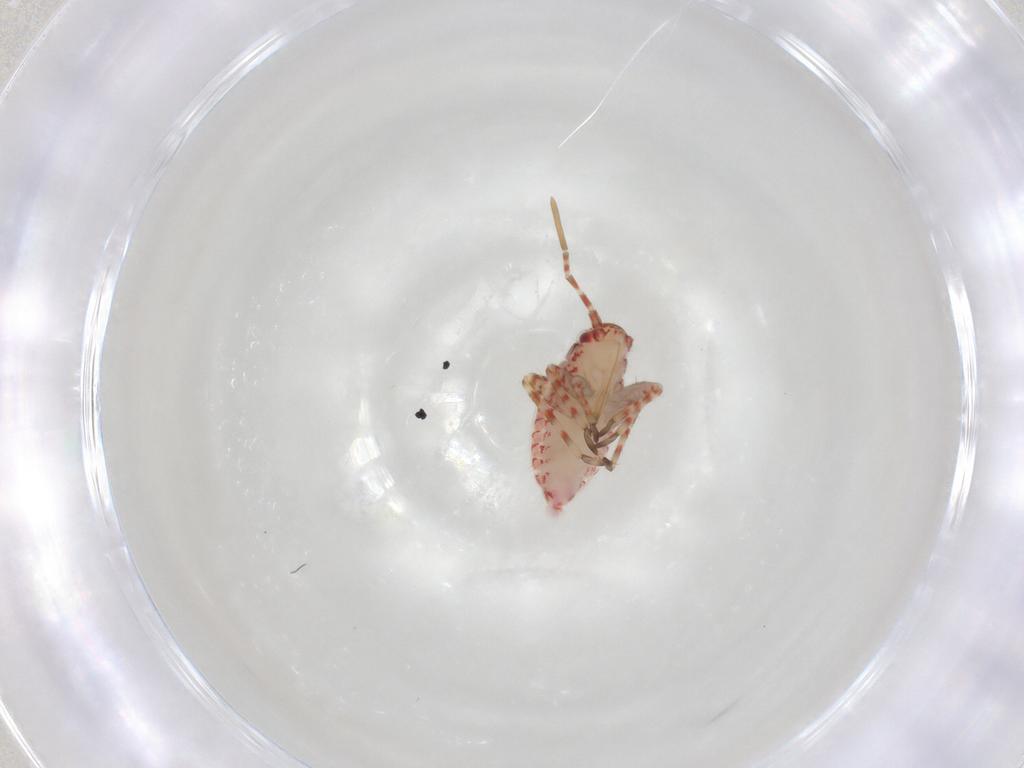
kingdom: Animalia
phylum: Arthropoda
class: Insecta
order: Hemiptera
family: Miridae
